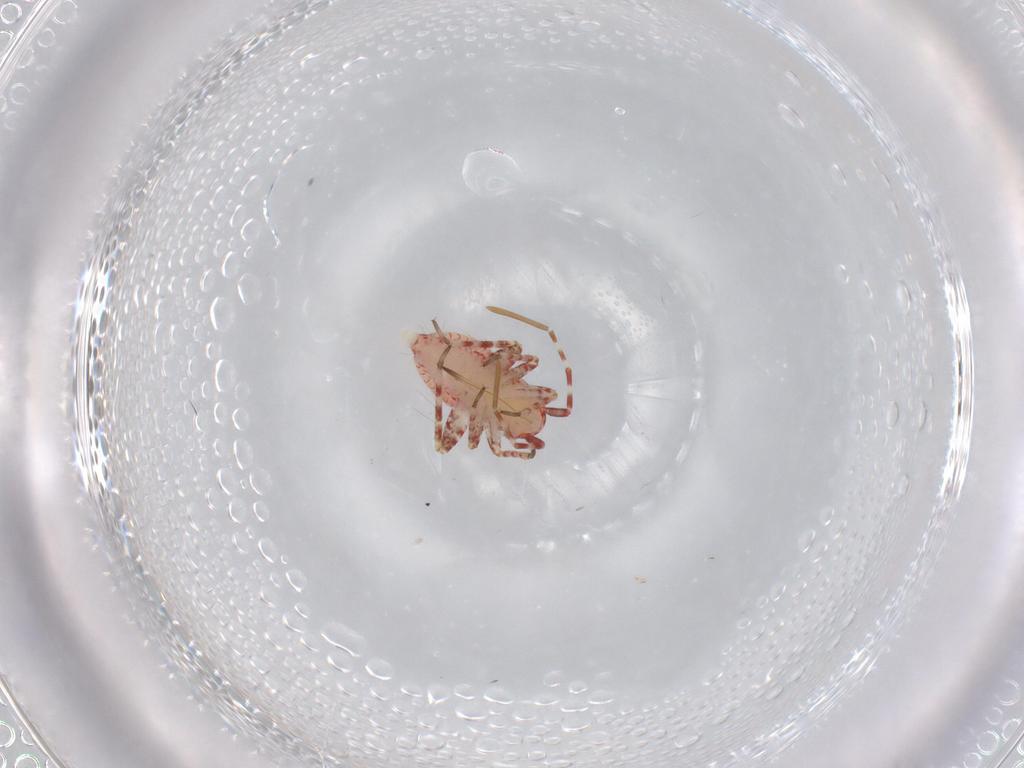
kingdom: Animalia
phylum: Arthropoda
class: Insecta
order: Hemiptera
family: Miridae
